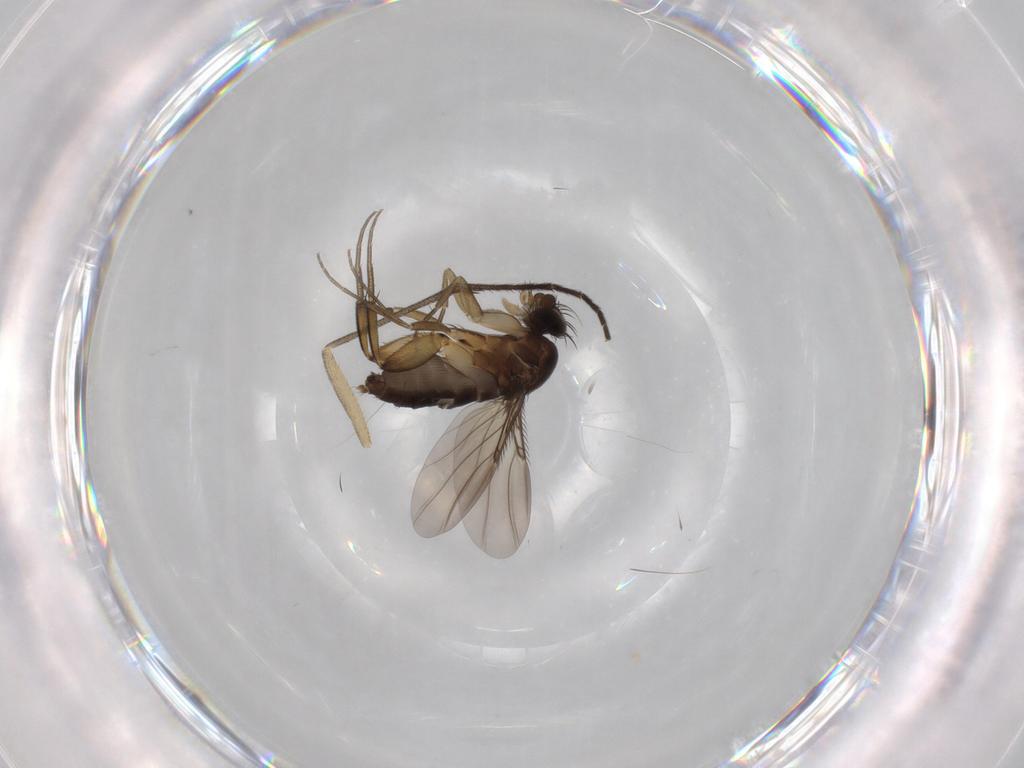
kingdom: Animalia
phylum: Arthropoda
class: Insecta
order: Diptera
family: Phoridae
